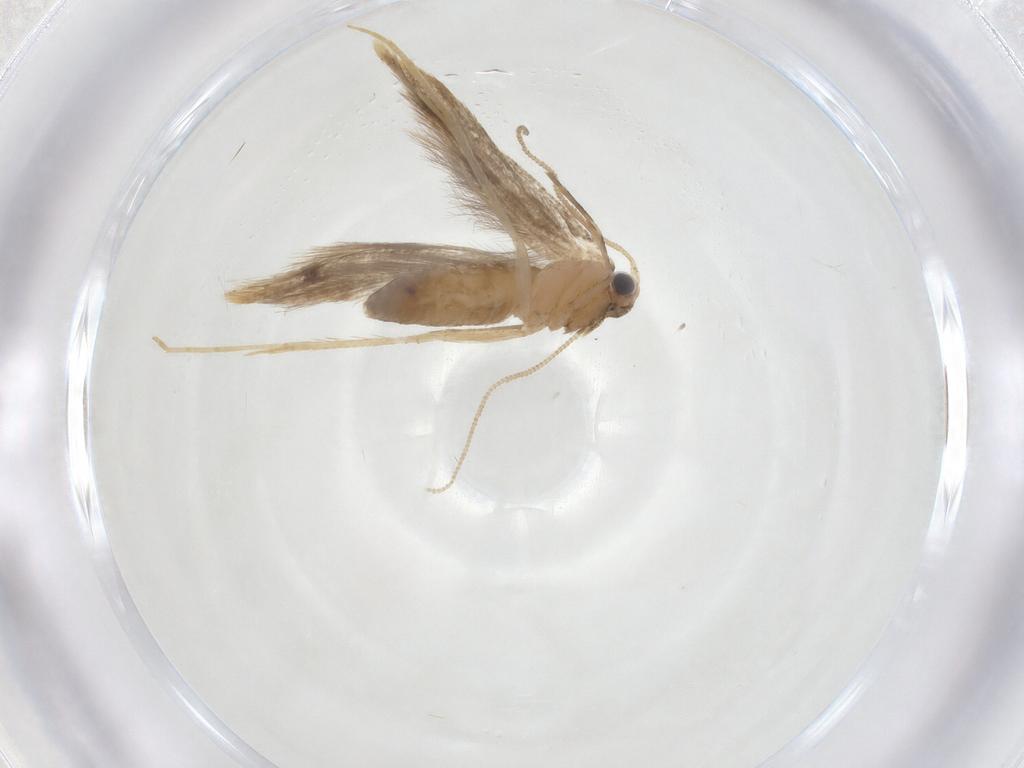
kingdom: Animalia
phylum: Arthropoda
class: Insecta
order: Lepidoptera
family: Tineidae
